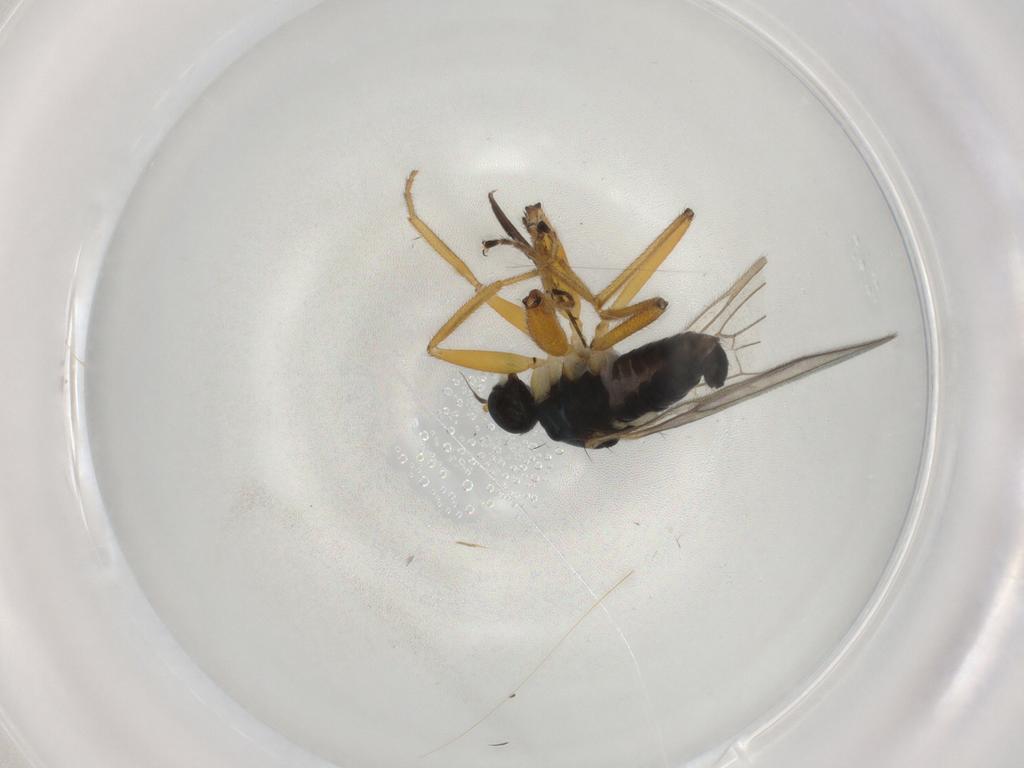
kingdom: Animalia
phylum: Arthropoda
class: Insecta
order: Diptera
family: Hybotidae
